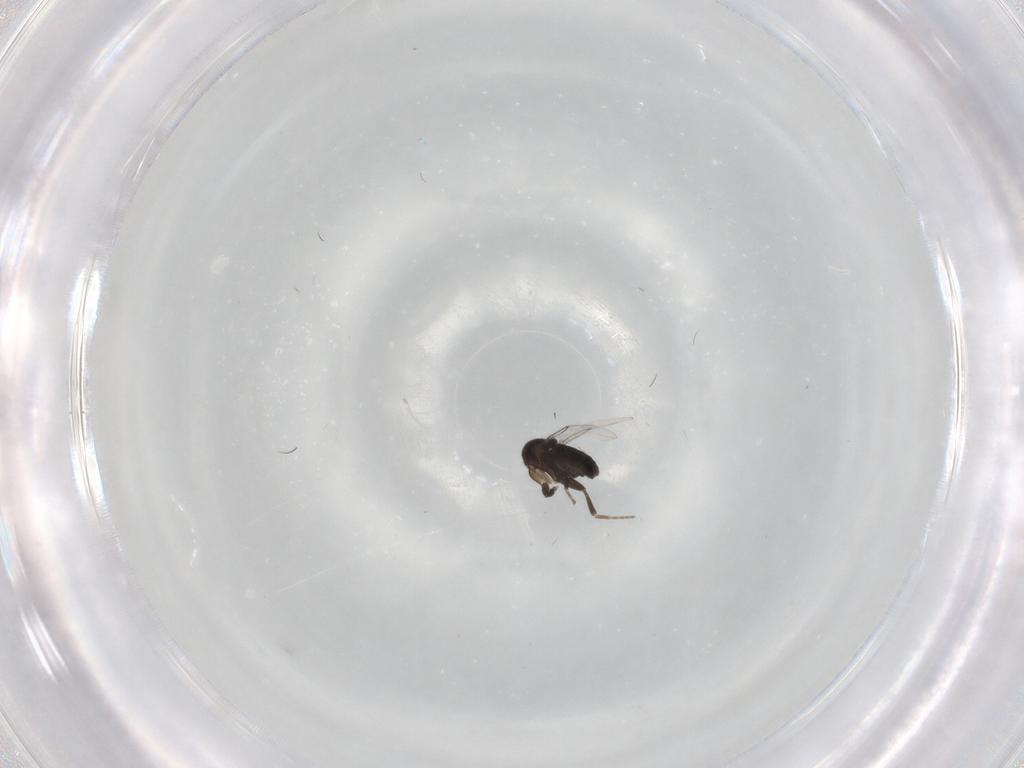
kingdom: Animalia
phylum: Arthropoda
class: Insecta
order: Diptera
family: Phoridae
